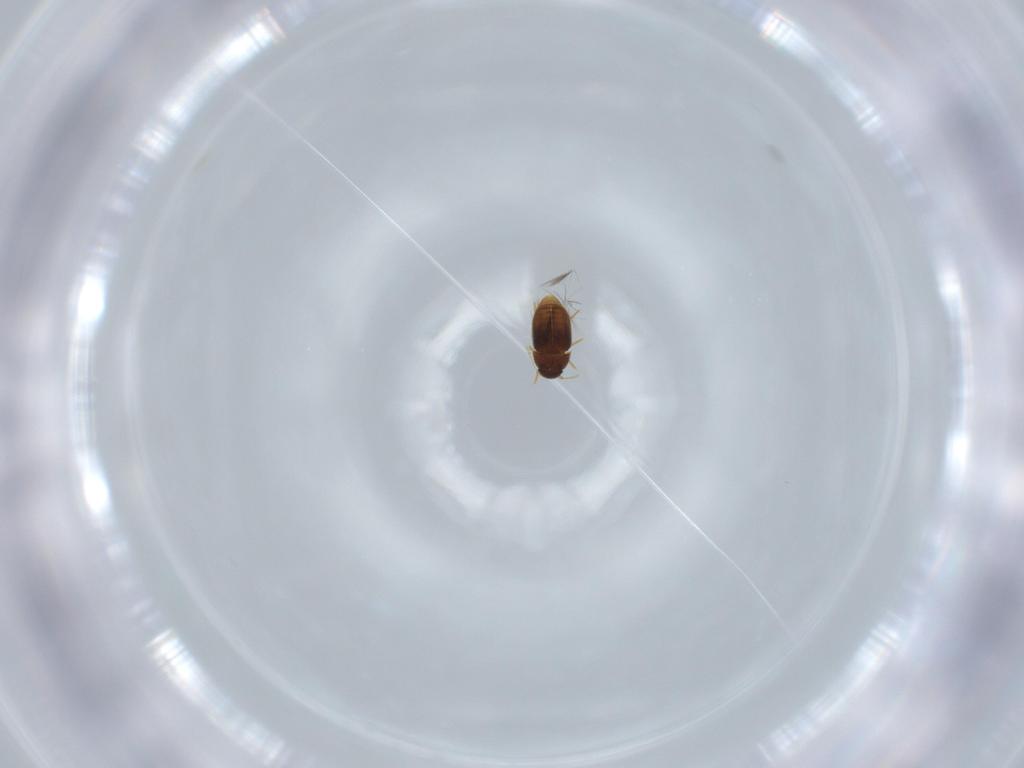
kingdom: Animalia
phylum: Arthropoda
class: Insecta
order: Coleoptera
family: Ptiliidae
